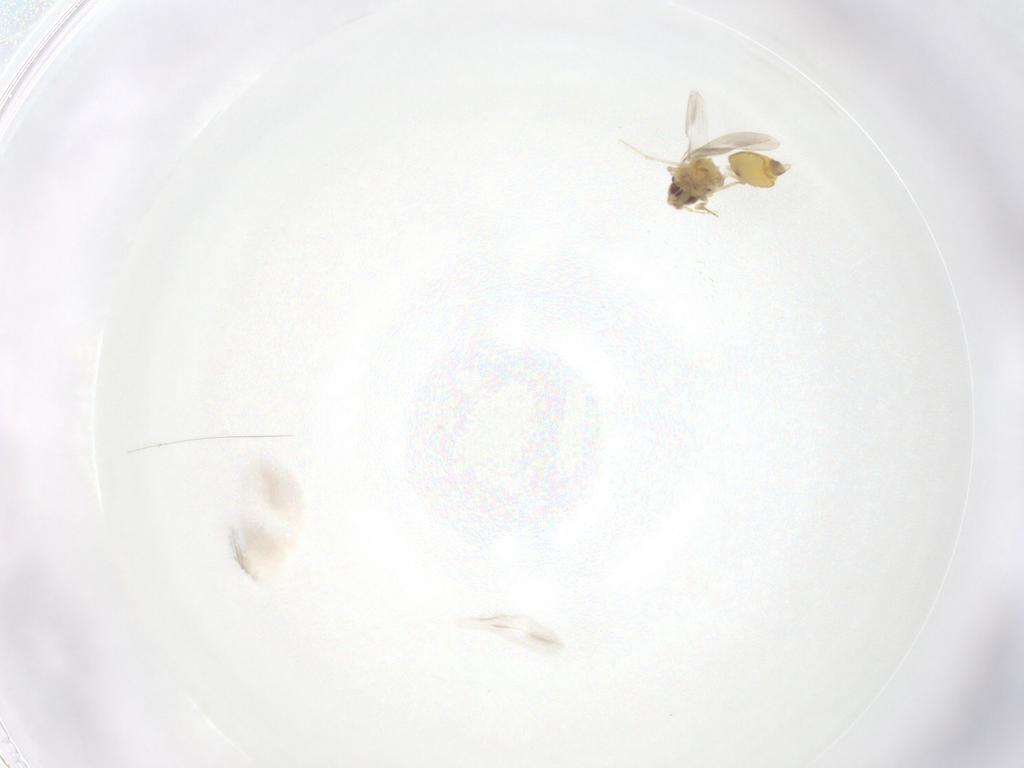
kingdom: Animalia
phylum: Arthropoda
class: Insecta
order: Diptera
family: Cecidomyiidae
